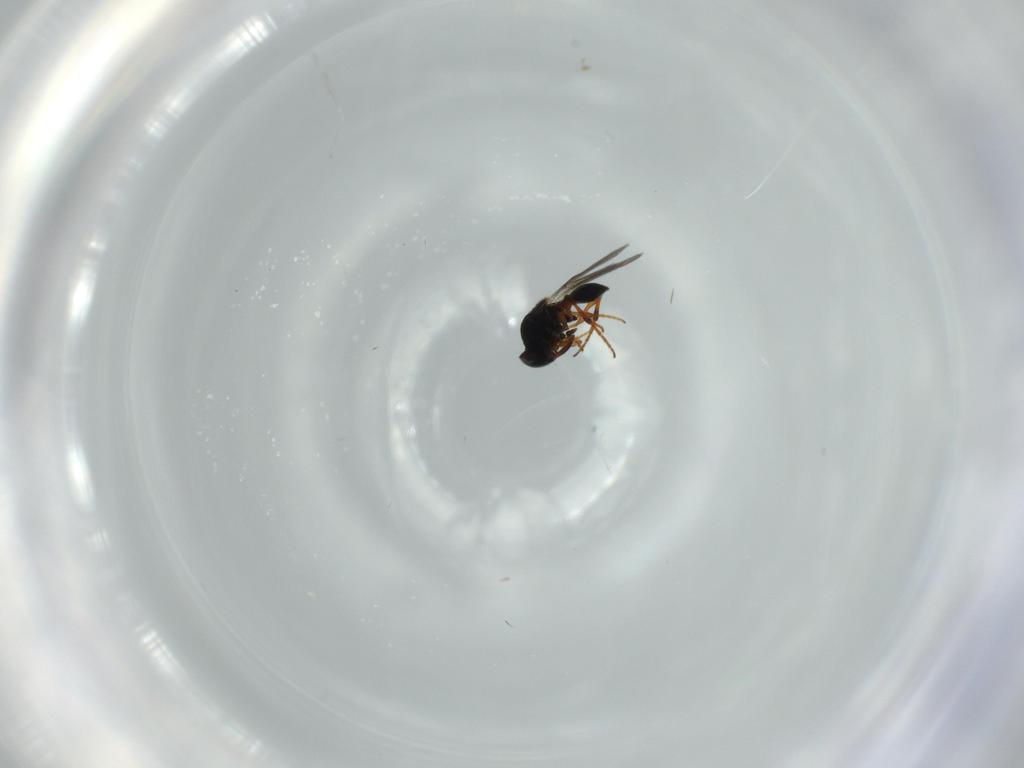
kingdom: Animalia
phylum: Arthropoda
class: Insecta
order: Hymenoptera
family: Platygastridae
